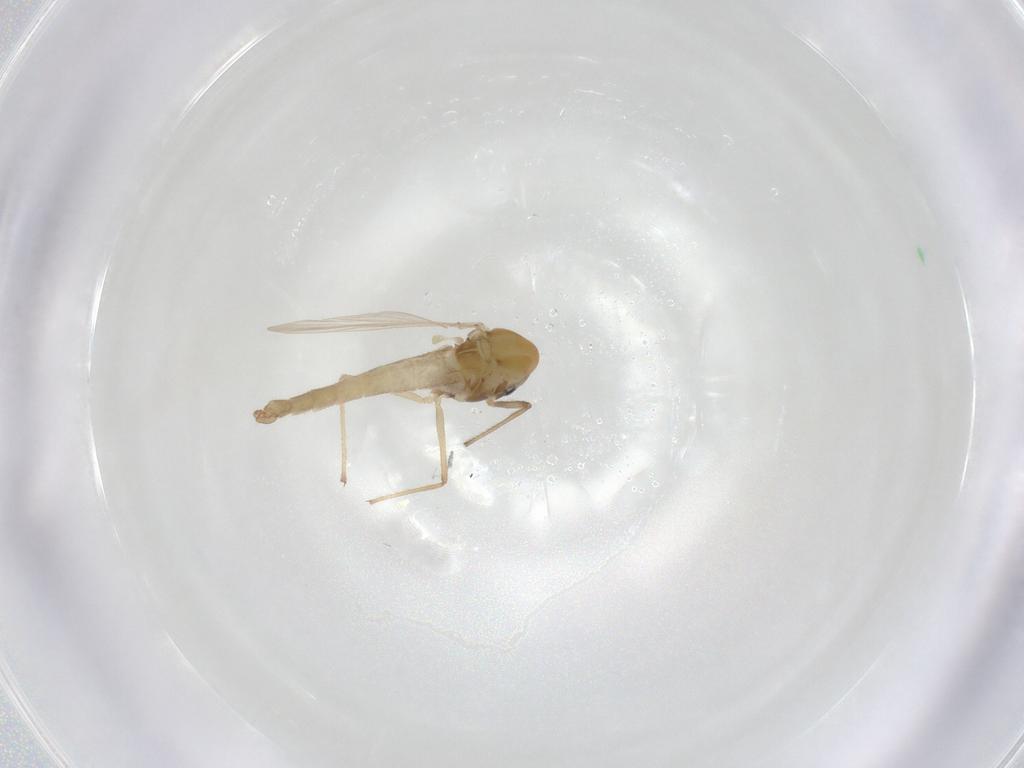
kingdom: Animalia
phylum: Arthropoda
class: Insecta
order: Diptera
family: Chironomidae
